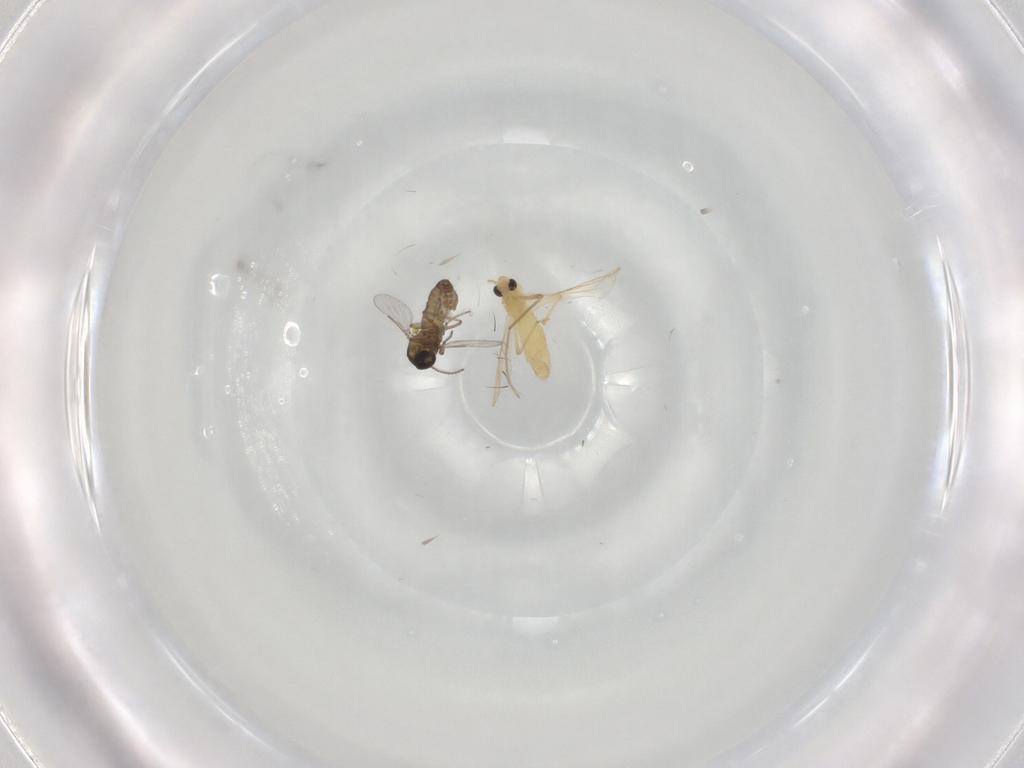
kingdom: Animalia
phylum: Arthropoda
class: Insecta
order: Diptera
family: Chironomidae
